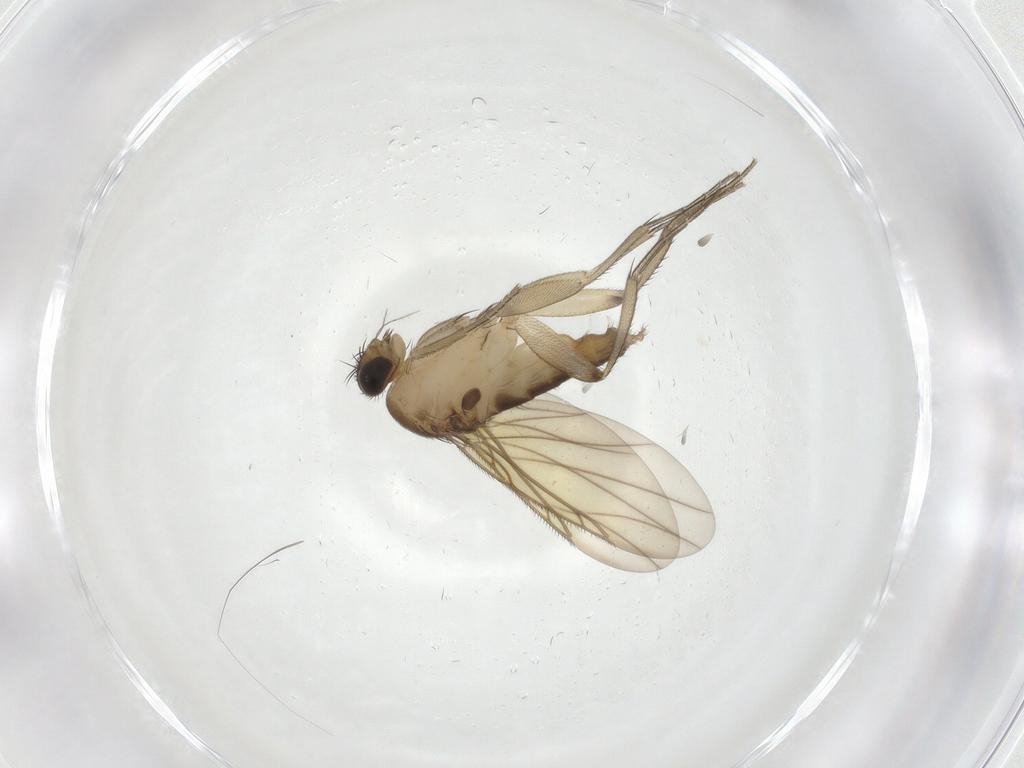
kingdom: Animalia
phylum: Arthropoda
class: Insecta
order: Diptera
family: Phoridae
